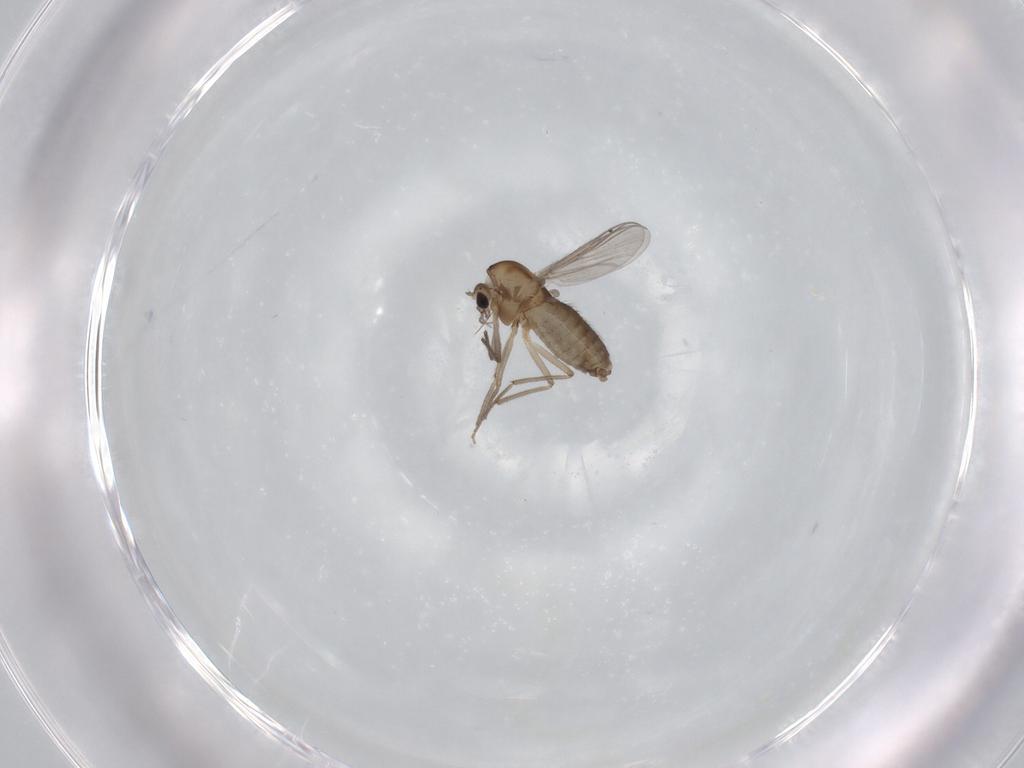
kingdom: Animalia
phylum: Arthropoda
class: Insecta
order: Diptera
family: Chironomidae
